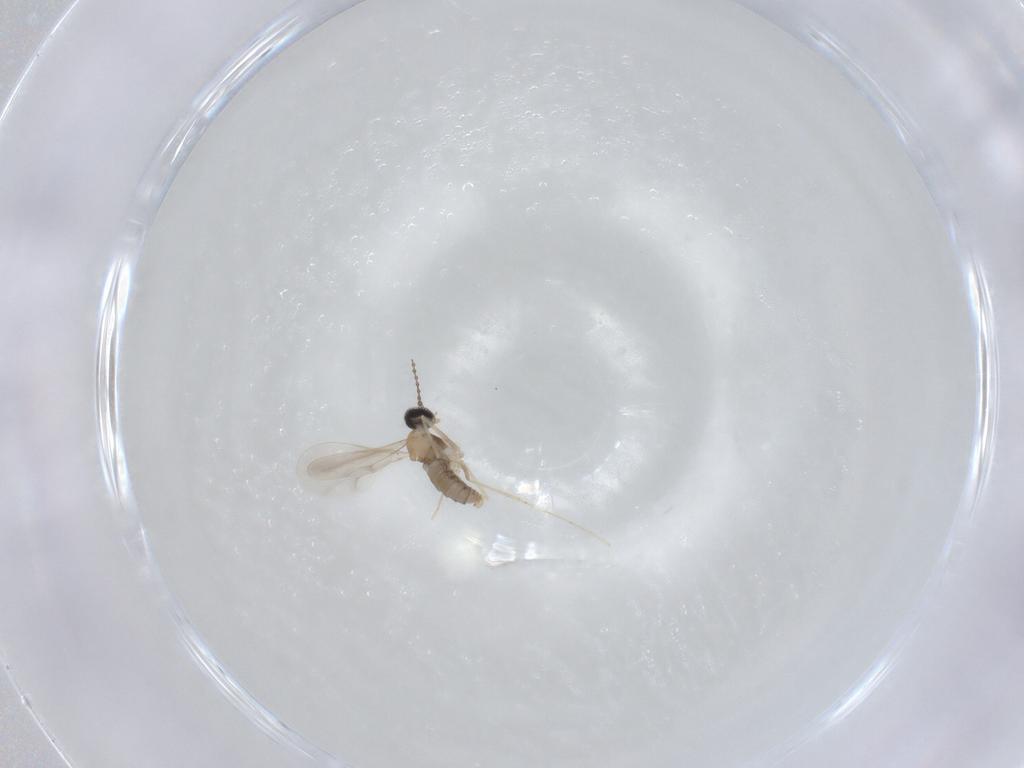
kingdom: Animalia
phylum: Arthropoda
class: Insecta
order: Diptera
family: Cecidomyiidae
